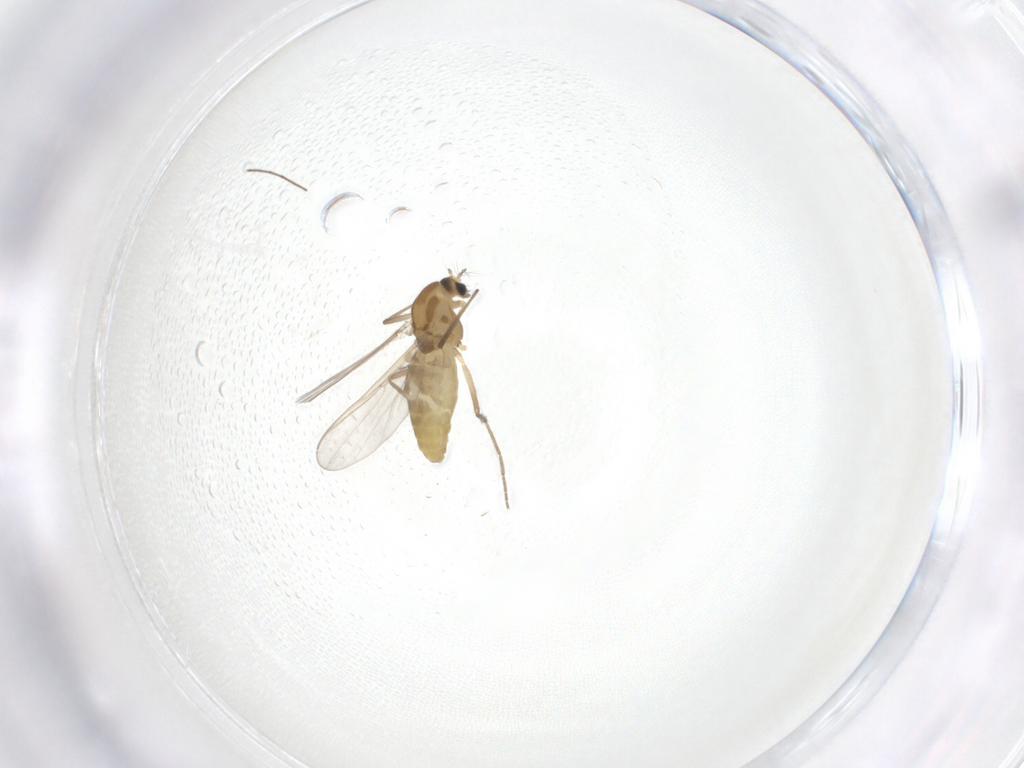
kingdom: Animalia
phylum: Arthropoda
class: Insecta
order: Diptera
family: Chironomidae
